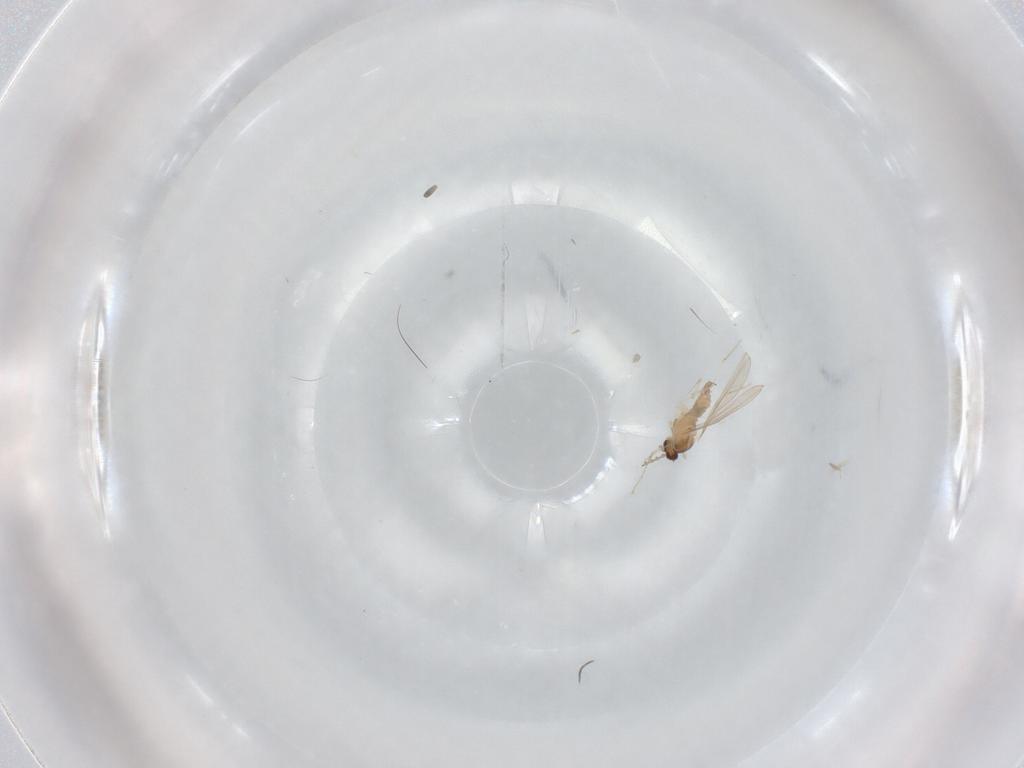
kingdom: Animalia
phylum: Arthropoda
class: Insecta
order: Diptera
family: Cecidomyiidae
